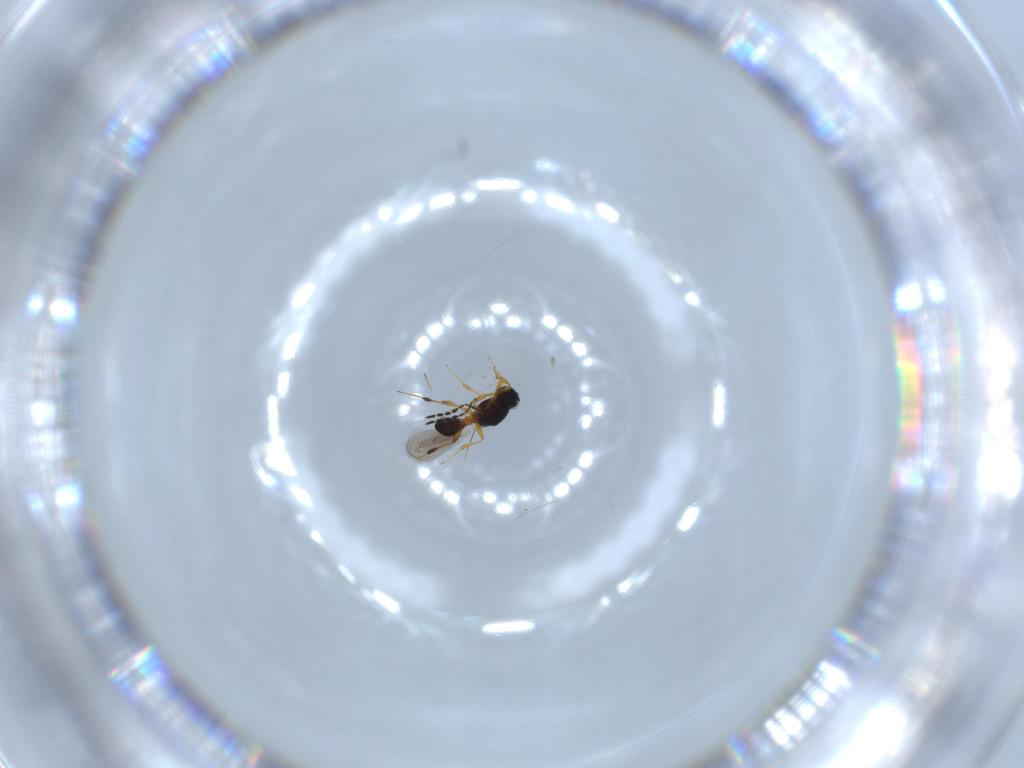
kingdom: Animalia
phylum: Arthropoda
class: Insecta
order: Hymenoptera
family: Platygastridae
